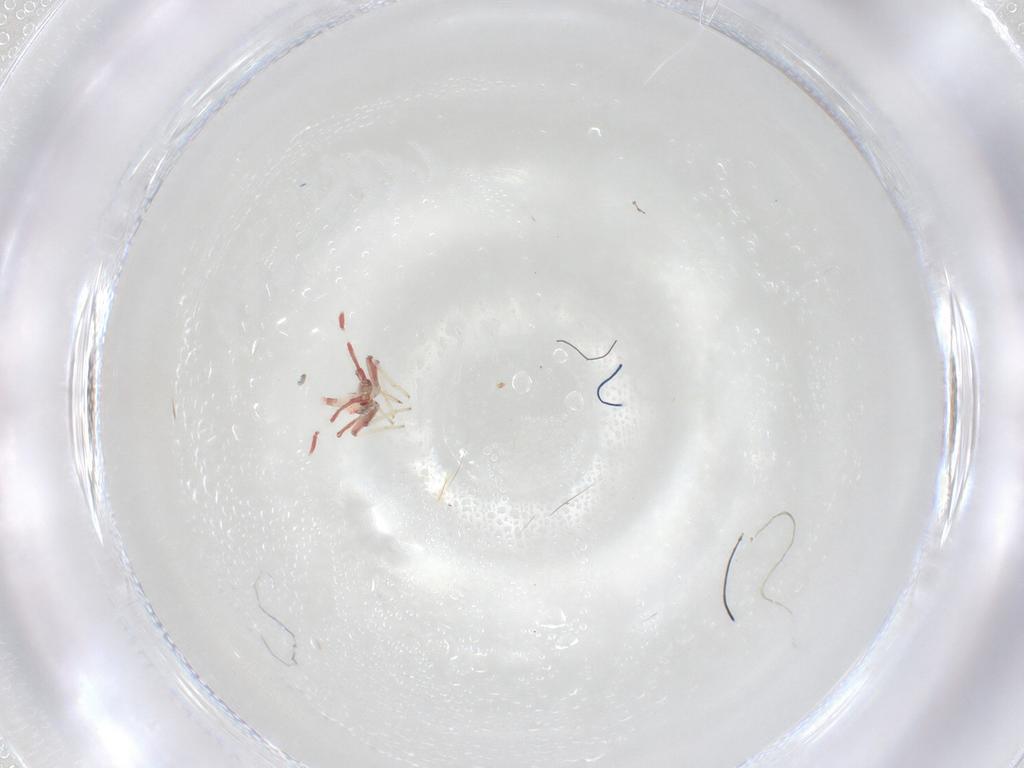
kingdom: Animalia
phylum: Arthropoda
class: Insecta
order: Hemiptera
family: Miridae
